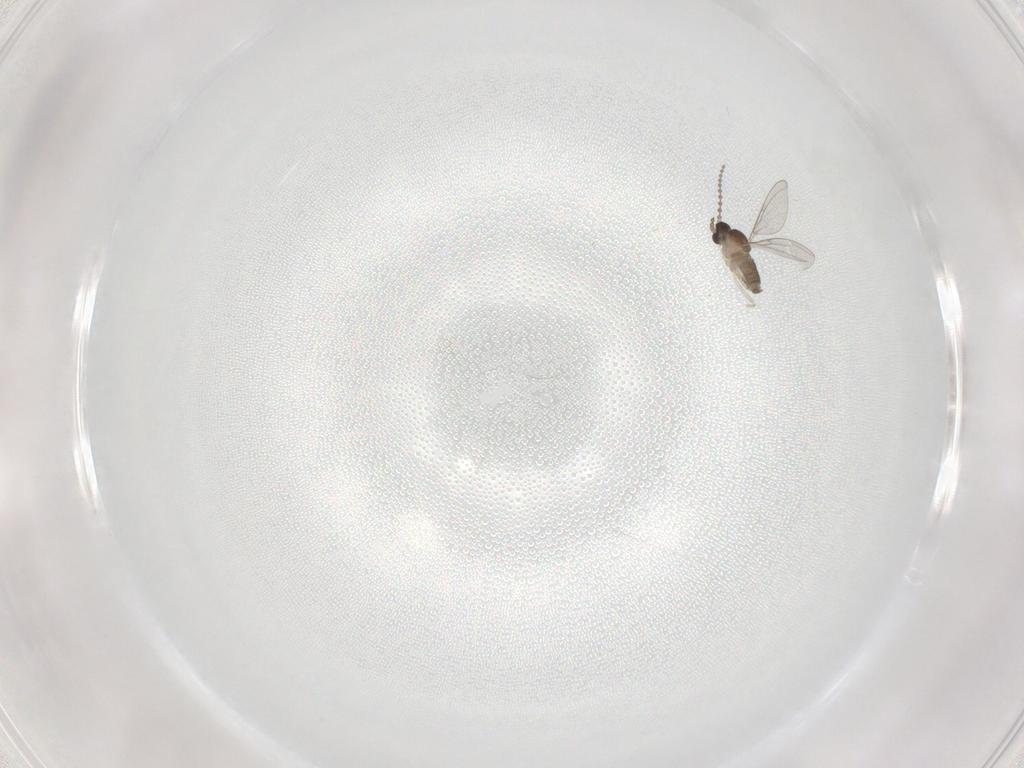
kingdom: Animalia
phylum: Arthropoda
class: Insecta
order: Diptera
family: Cecidomyiidae
